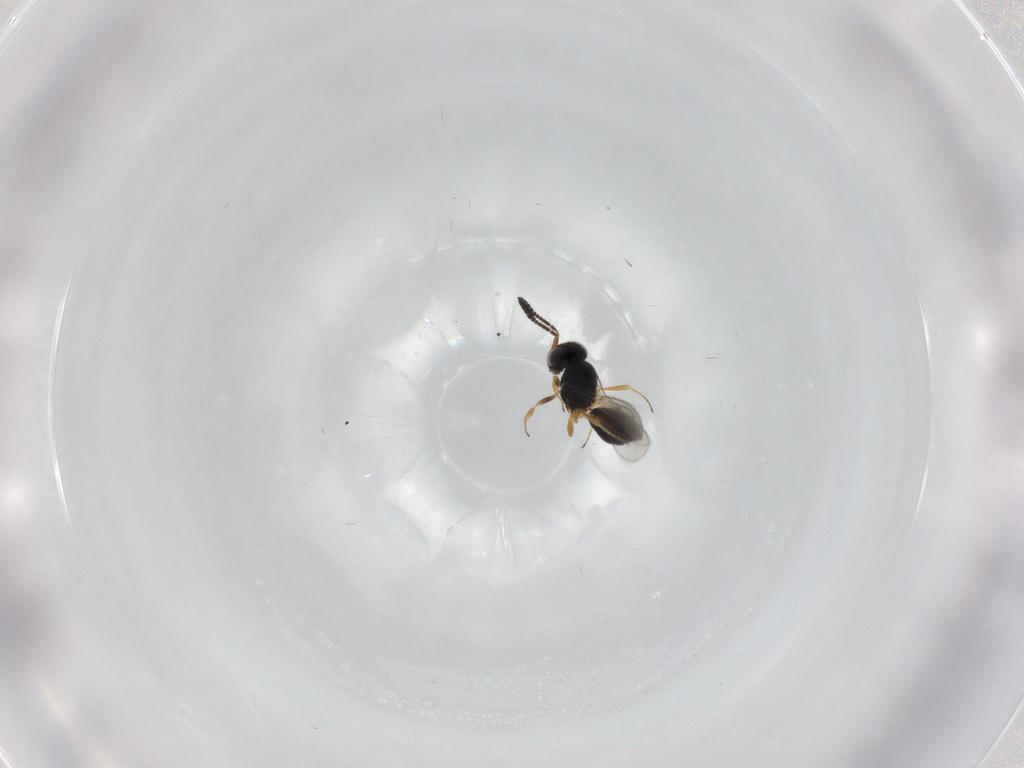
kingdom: Animalia
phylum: Arthropoda
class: Insecta
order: Hymenoptera
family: Scelionidae
